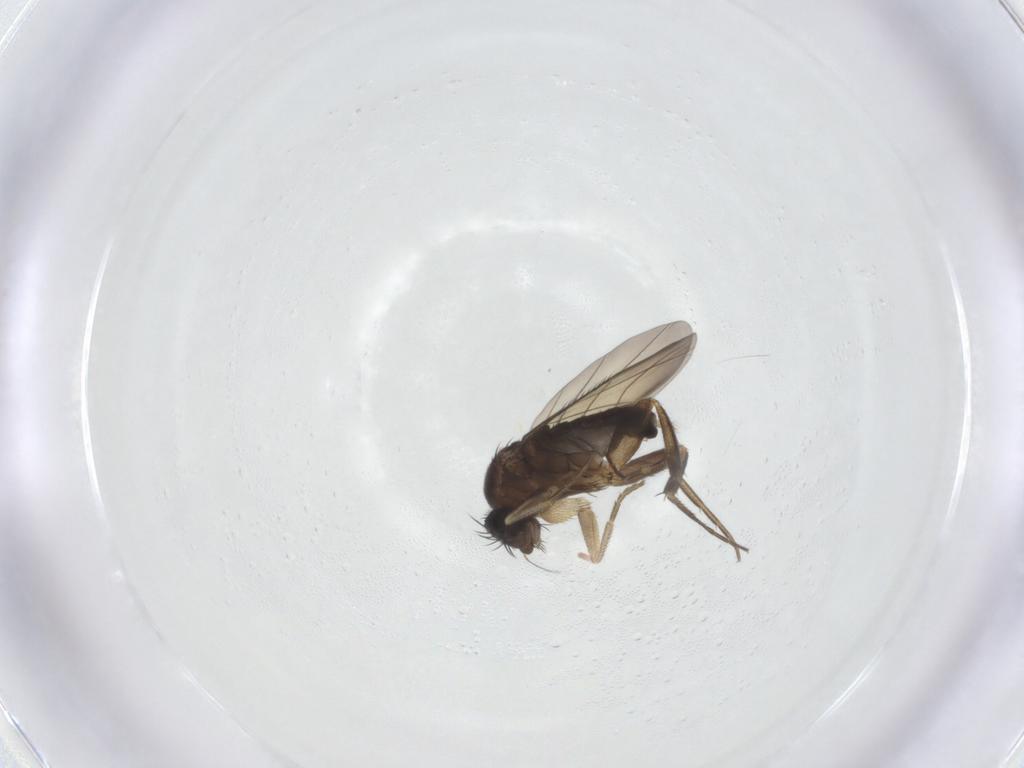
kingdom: Animalia
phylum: Arthropoda
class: Insecta
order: Diptera
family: Phoridae
